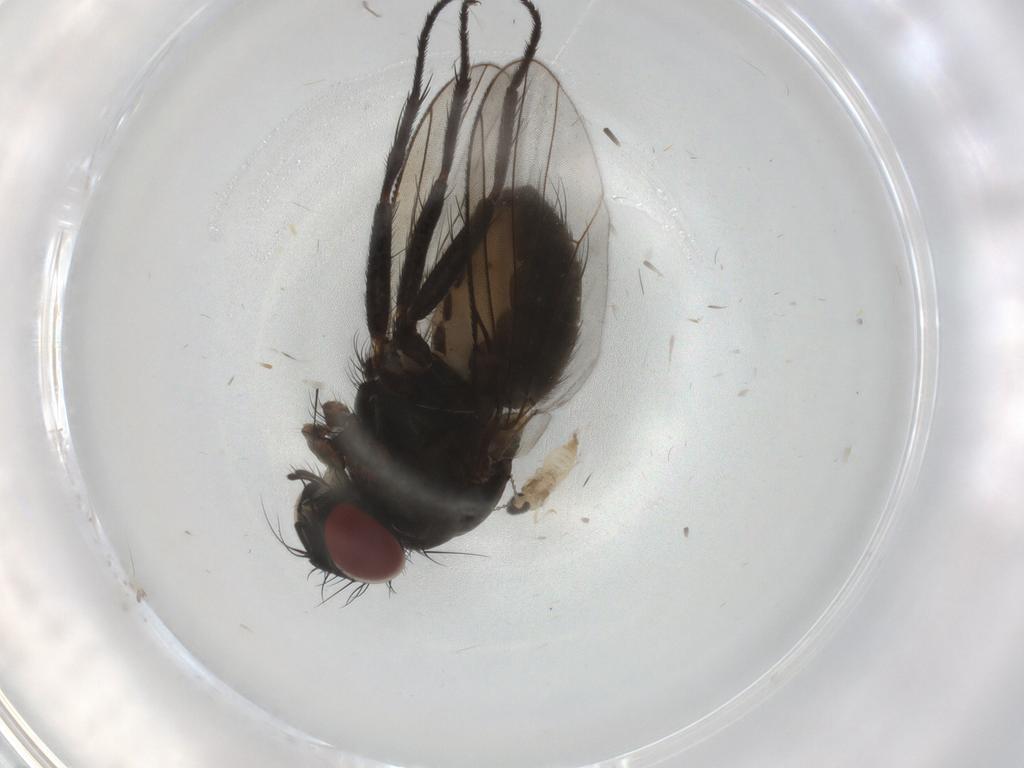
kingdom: Animalia
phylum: Arthropoda
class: Insecta
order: Diptera
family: Muscidae
